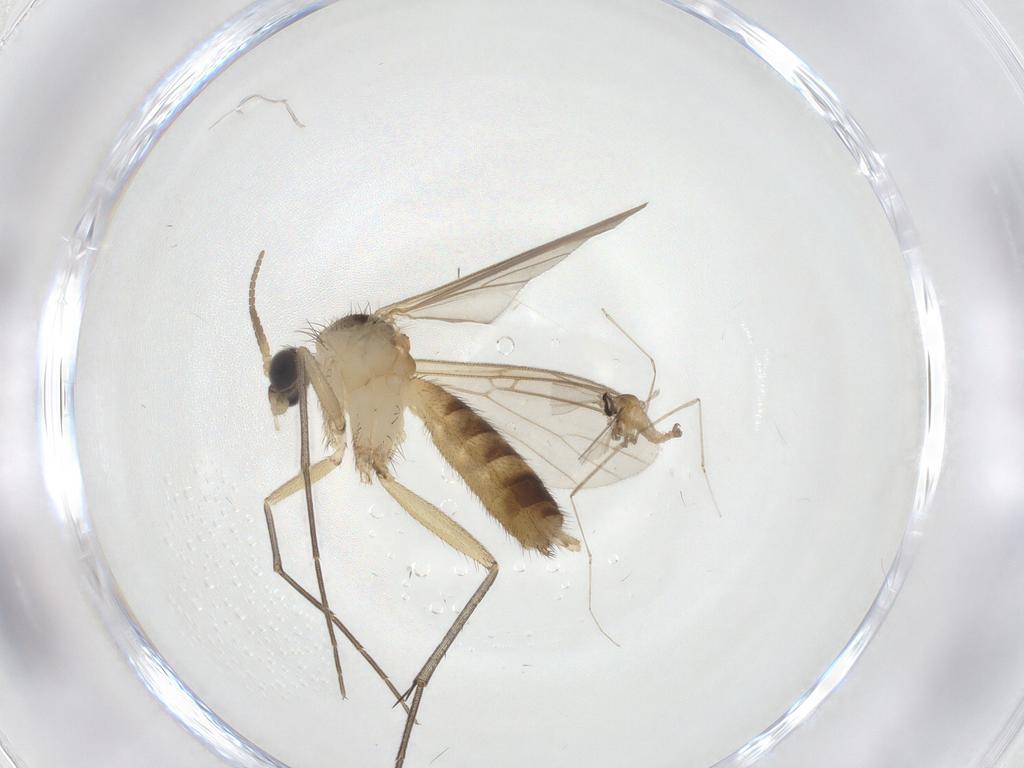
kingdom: Animalia
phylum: Arthropoda
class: Insecta
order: Diptera
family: Mycetophilidae
